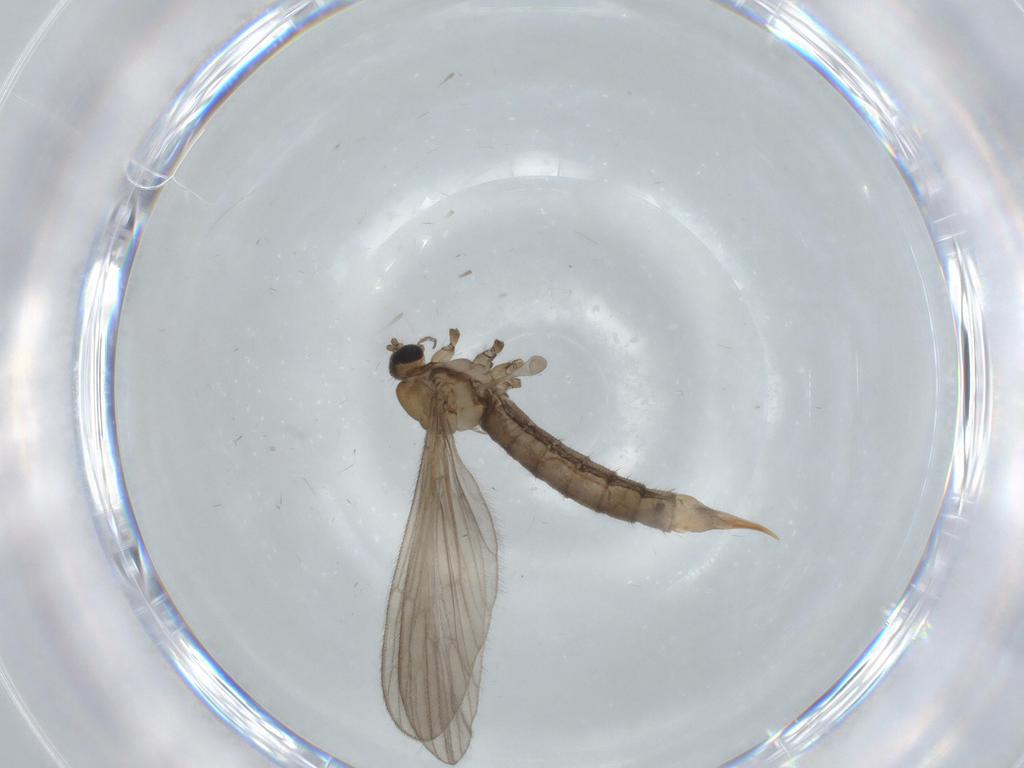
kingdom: Animalia
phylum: Arthropoda
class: Insecta
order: Diptera
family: Limoniidae
